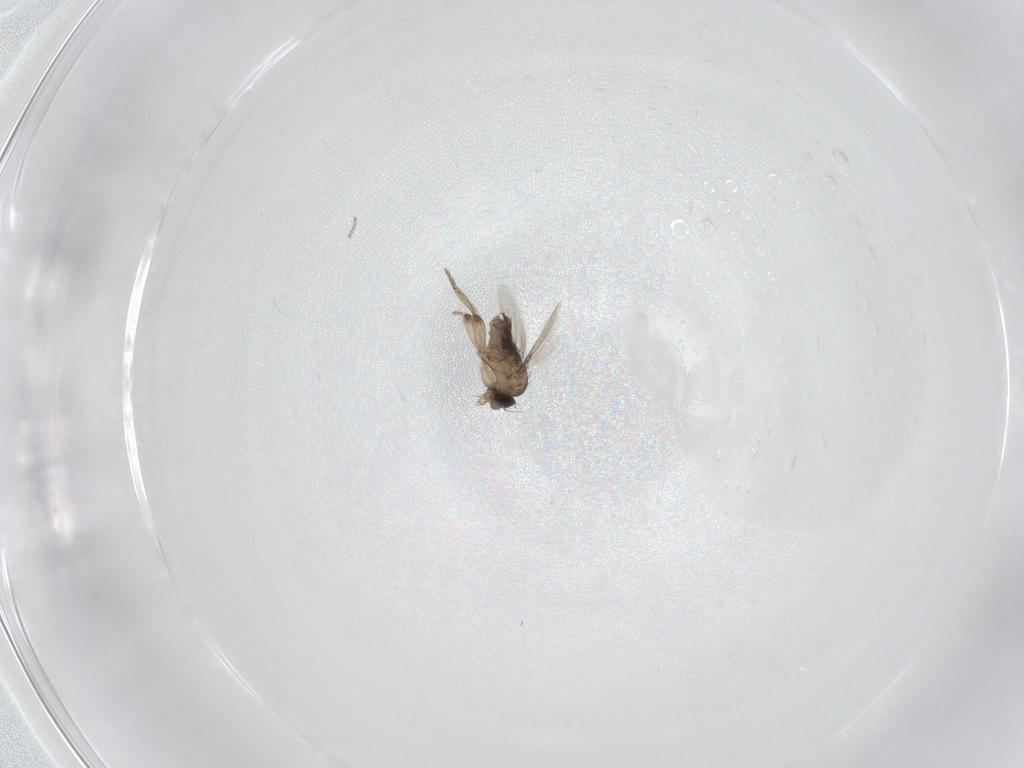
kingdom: Animalia
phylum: Arthropoda
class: Insecta
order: Diptera
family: Phoridae
